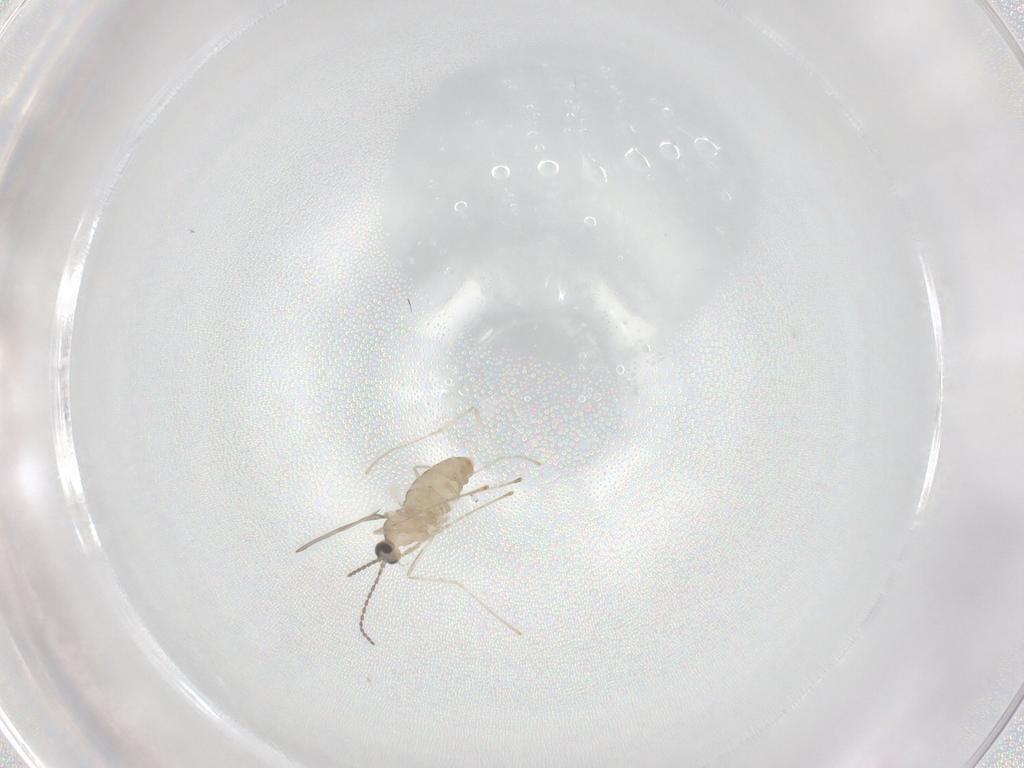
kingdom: Animalia
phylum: Arthropoda
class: Insecta
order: Diptera
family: Cecidomyiidae
